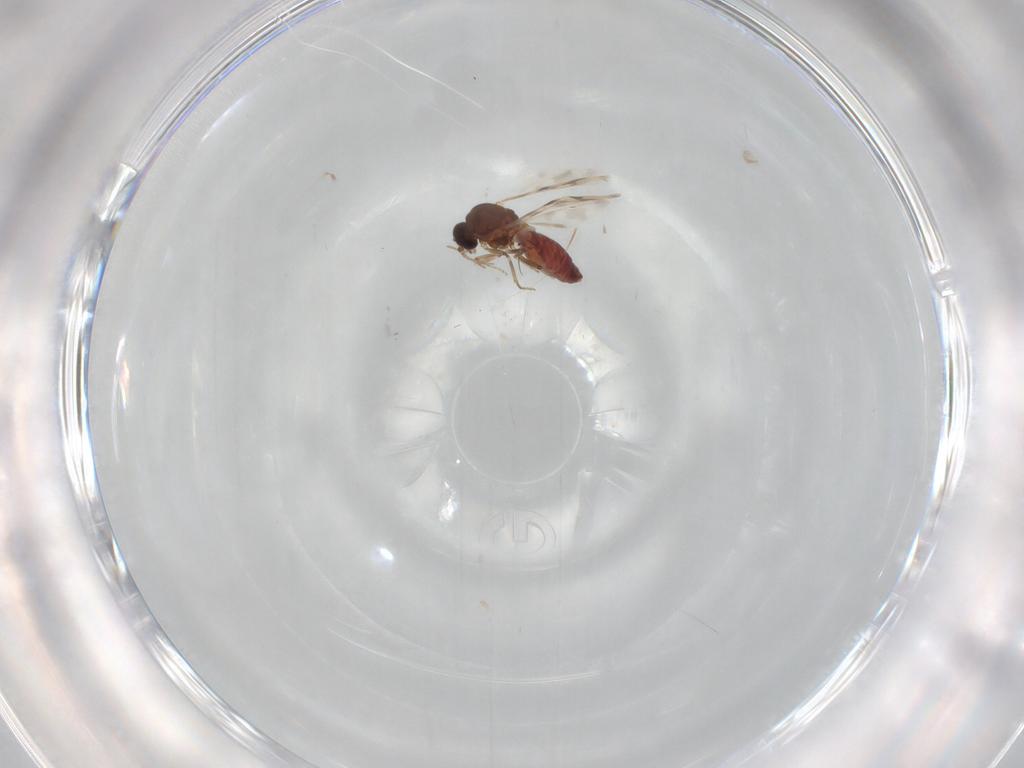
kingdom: Animalia
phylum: Arthropoda
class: Insecta
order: Diptera
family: Ceratopogonidae
